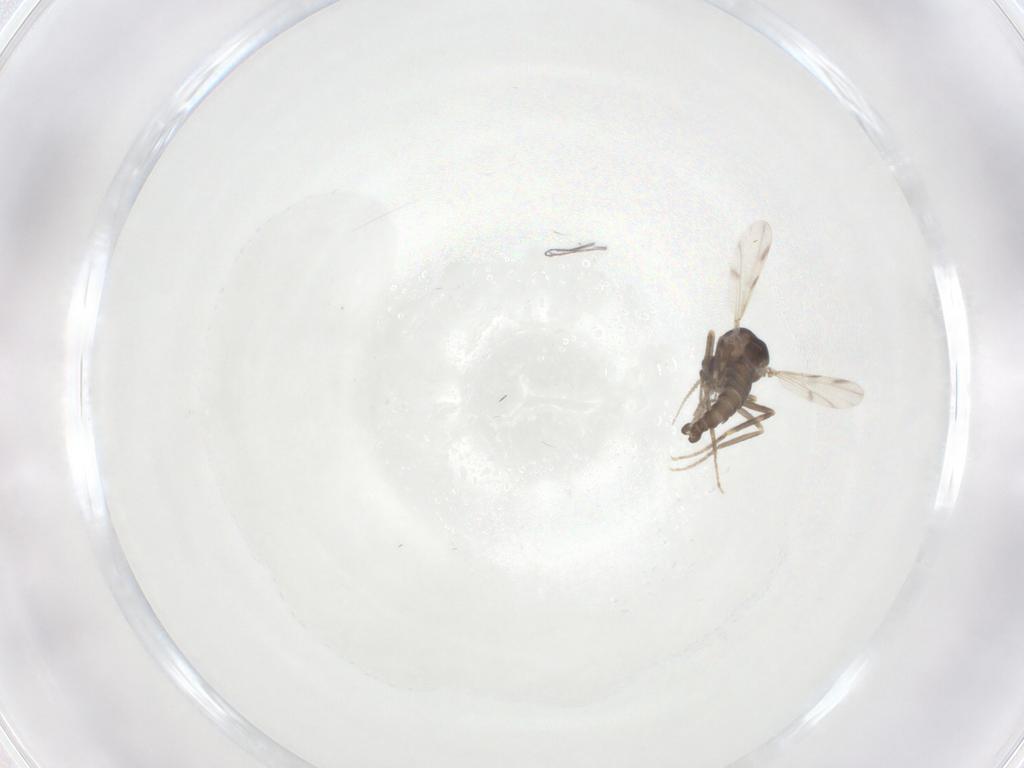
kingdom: Animalia
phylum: Arthropoda
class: Insecta
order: Diptera
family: Ceratopogonidae
